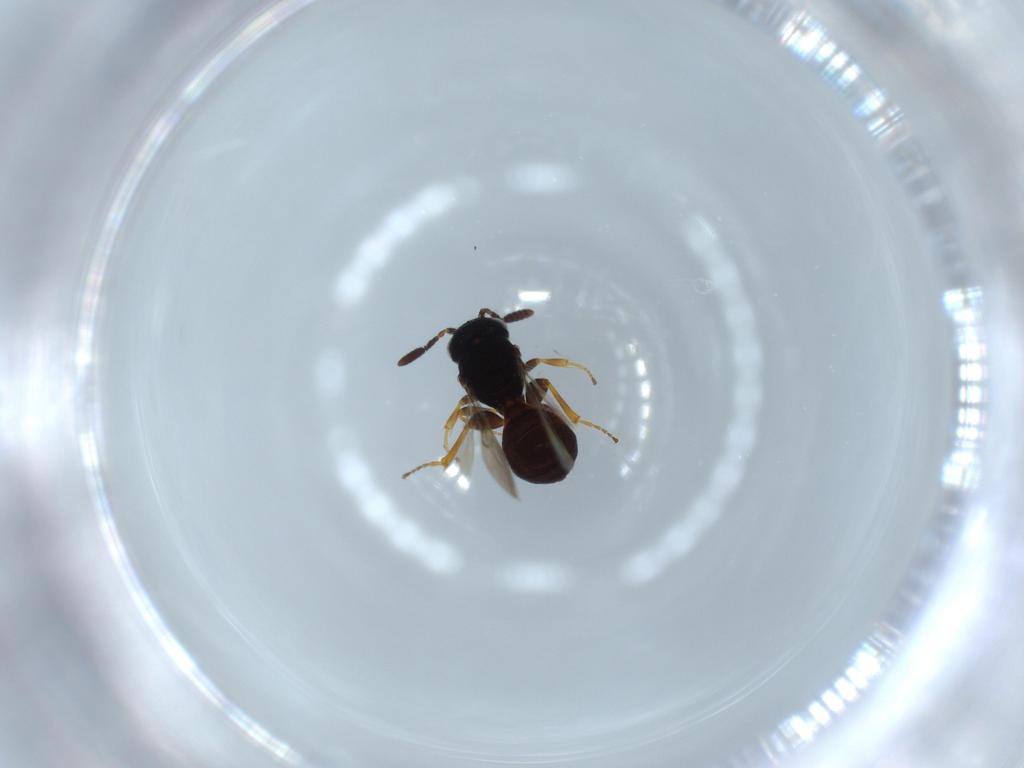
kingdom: Animalia
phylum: Arthropoda
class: Insecta
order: Hymenoptera
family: Scelionidae
